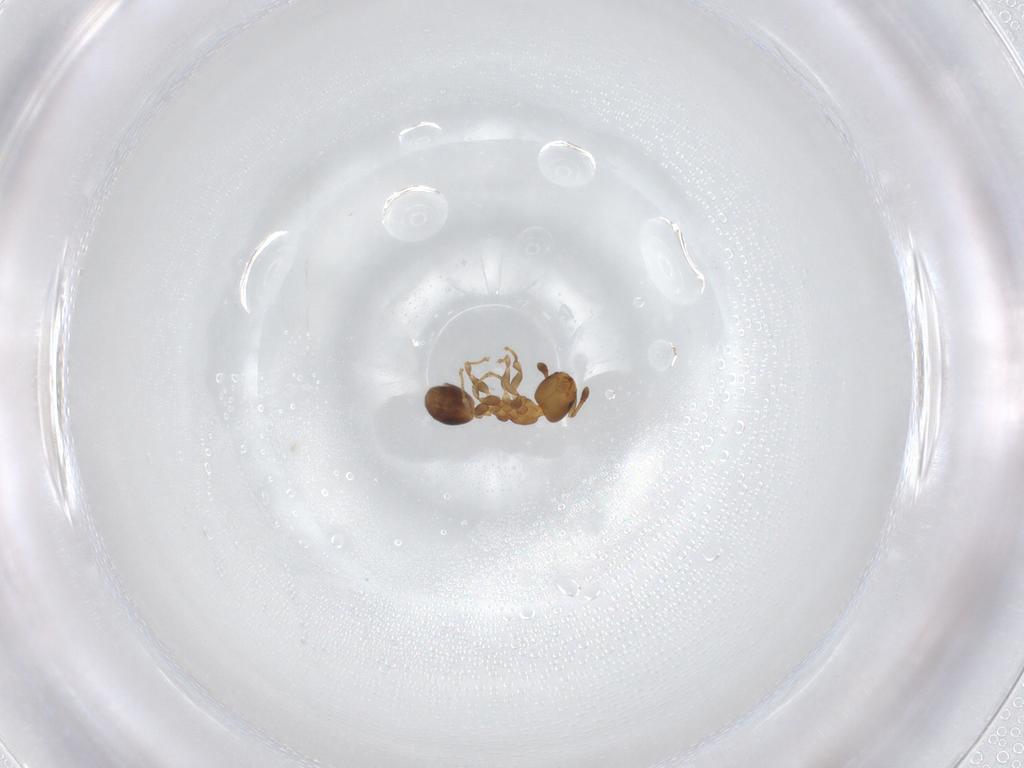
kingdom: Animalia
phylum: Arthropoda
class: Insecta
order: Hymenoptera
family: Formicidae
